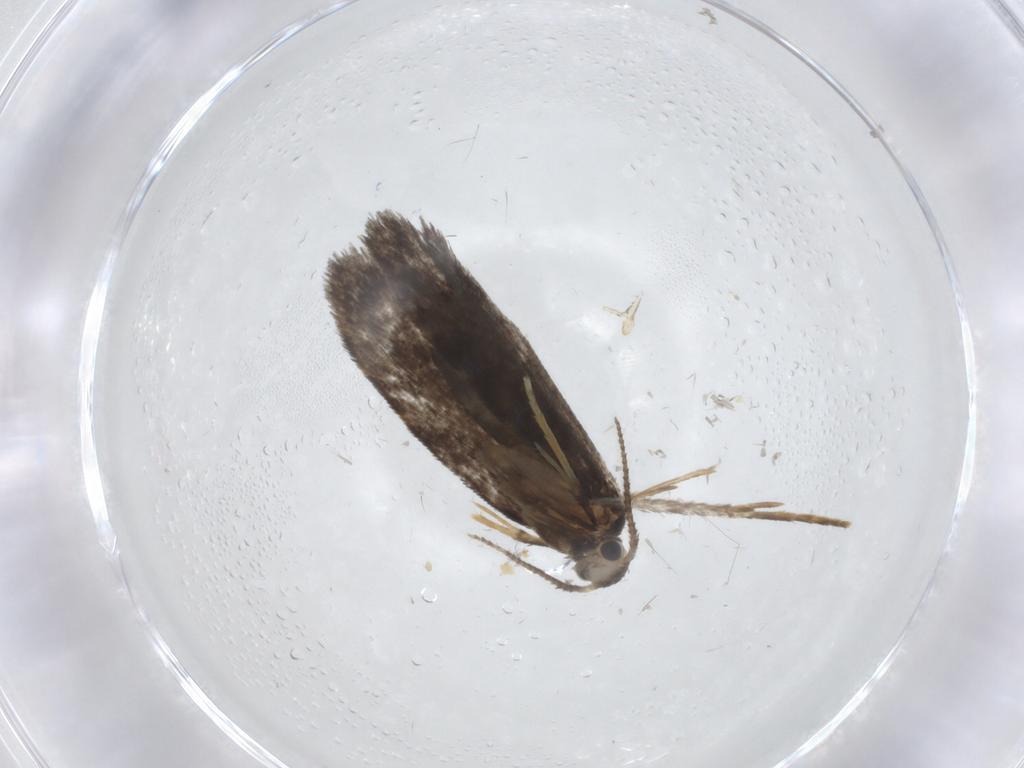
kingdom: Animalia
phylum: Arthropoda
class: Insecta
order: Lepidoptera
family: Psychidae
